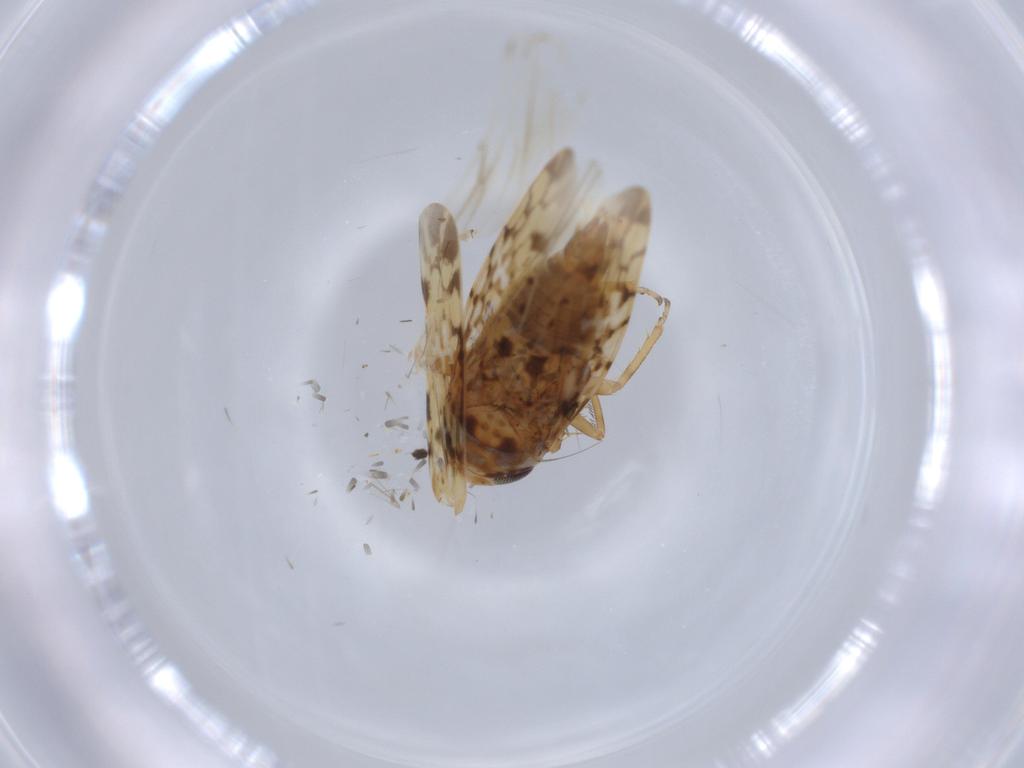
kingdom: Animalia
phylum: Arthropoda
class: Insecta
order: Hemiptera
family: Cicadellidae
